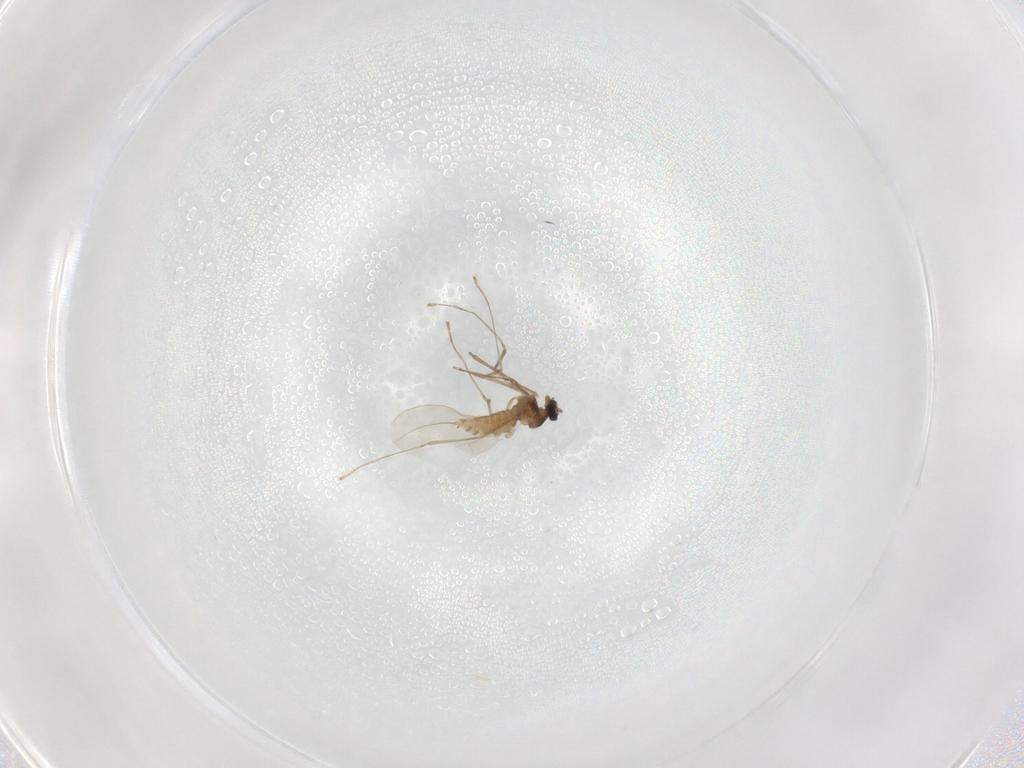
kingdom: Animalia
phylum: Arthropoda
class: Insecta
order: Diptera
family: Cecidomyiidae
